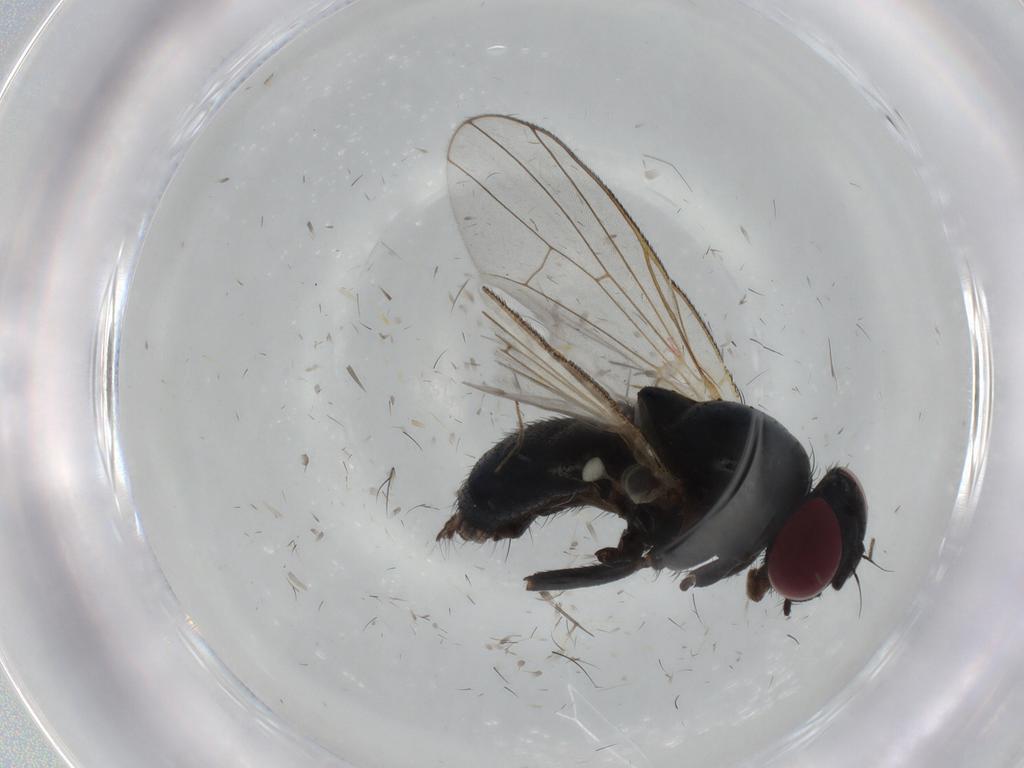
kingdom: Animalia
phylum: Arthropoda
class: Insecta
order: Diptera
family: Fannia
